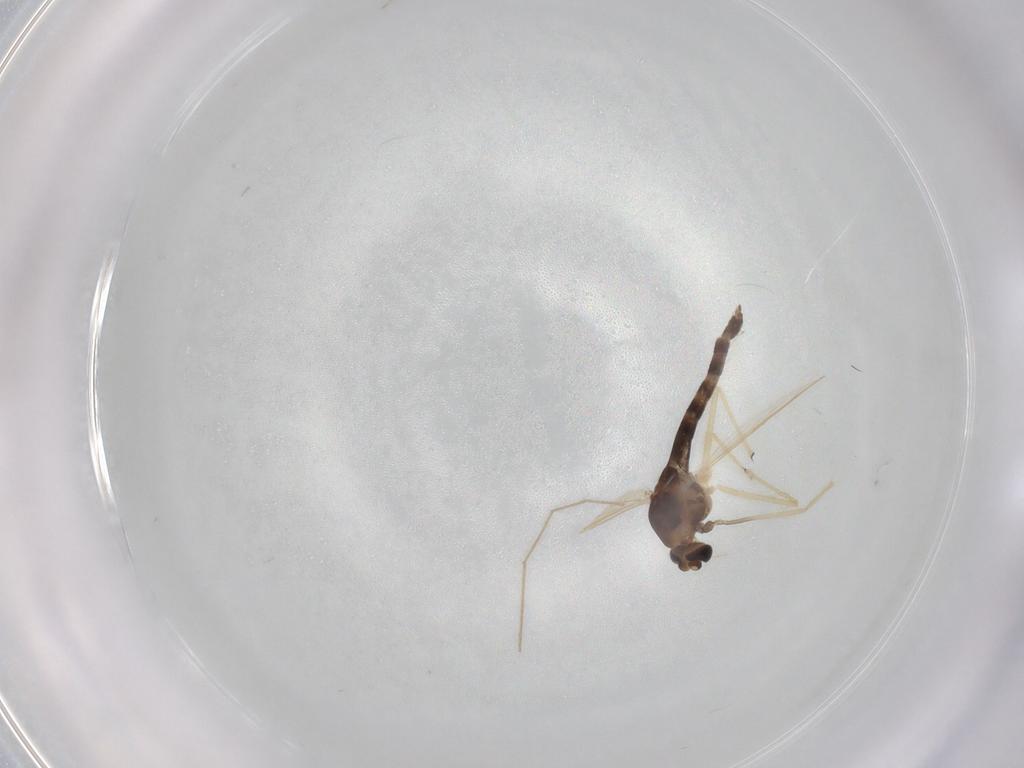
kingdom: Animalia
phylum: Arthropoda
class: Insecta
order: Diptera
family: Chironomidae
